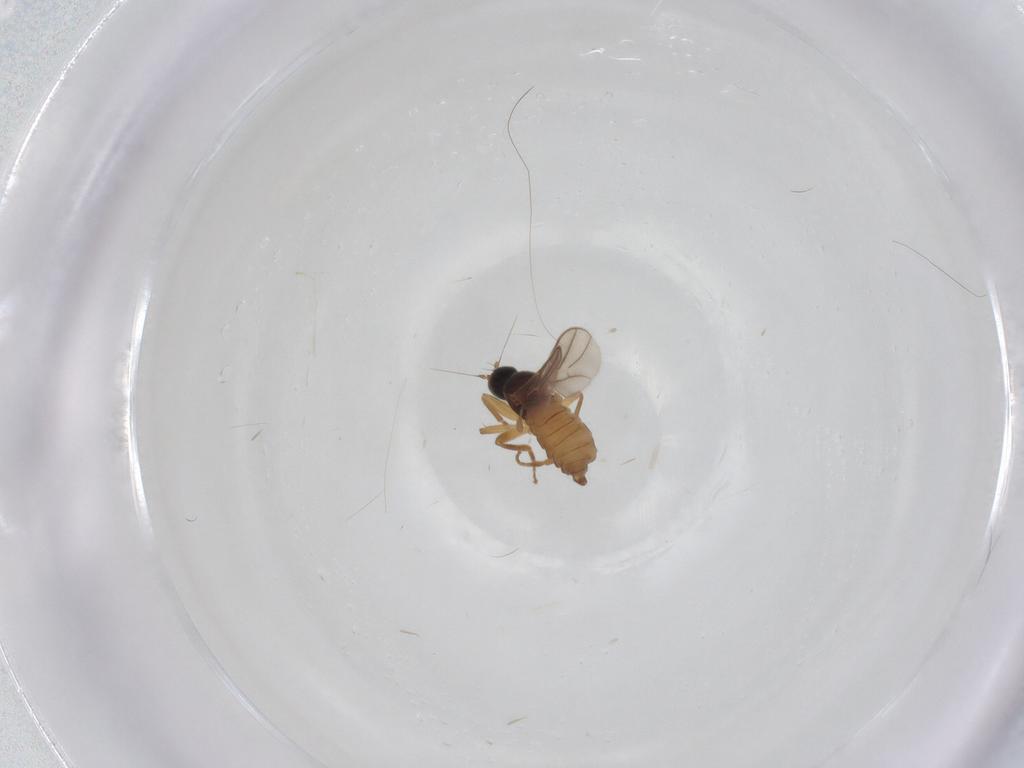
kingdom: Animalia
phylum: Arthropoda
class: Insecta
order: Diptera
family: Hybotidae
